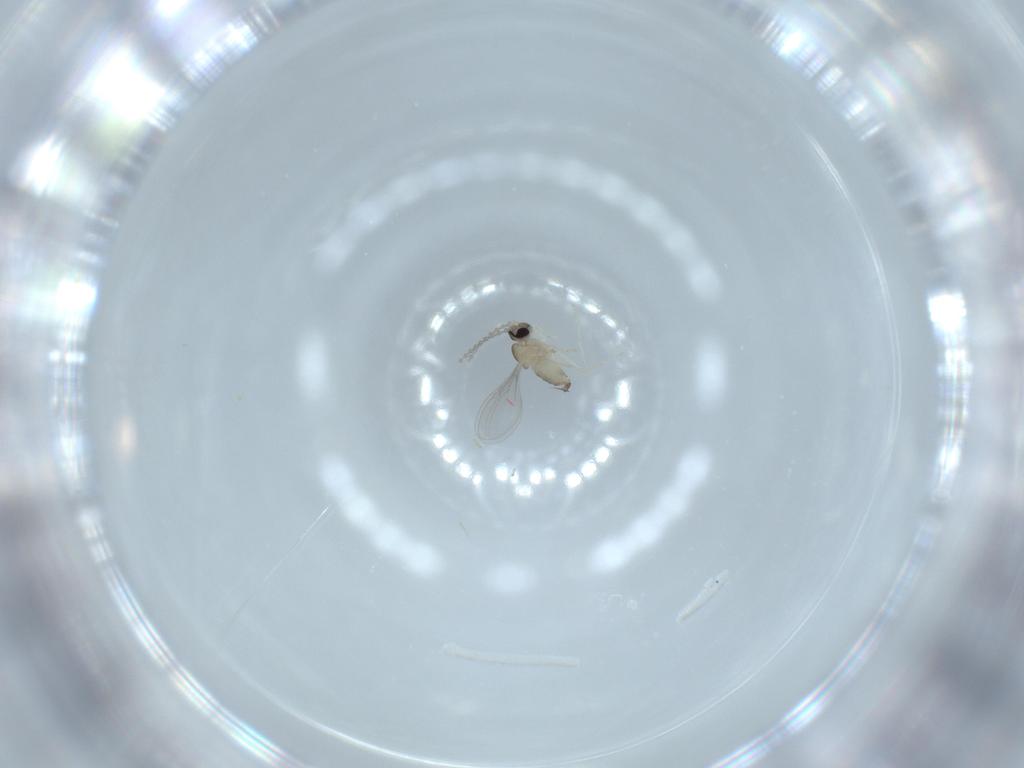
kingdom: Animalia
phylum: Arthropoda
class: Insecta
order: Diptera
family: Cecidomyiidae
